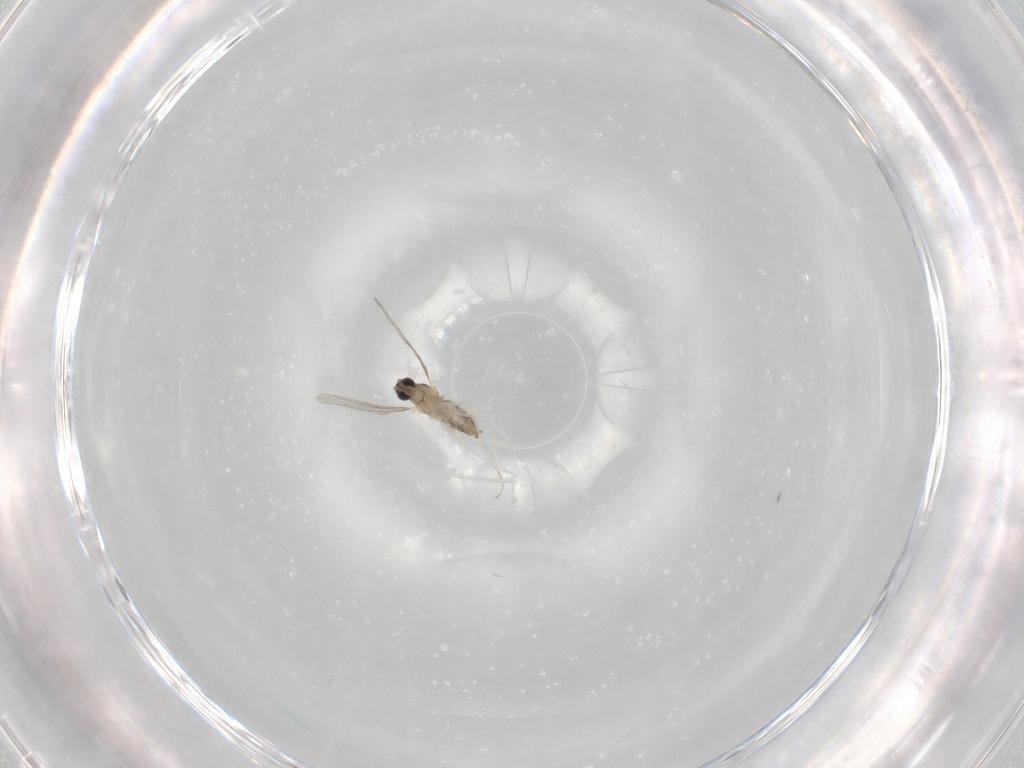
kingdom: Animalia
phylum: Arthropoda
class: Insecta
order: Diptera
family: Cecidomyiidae
